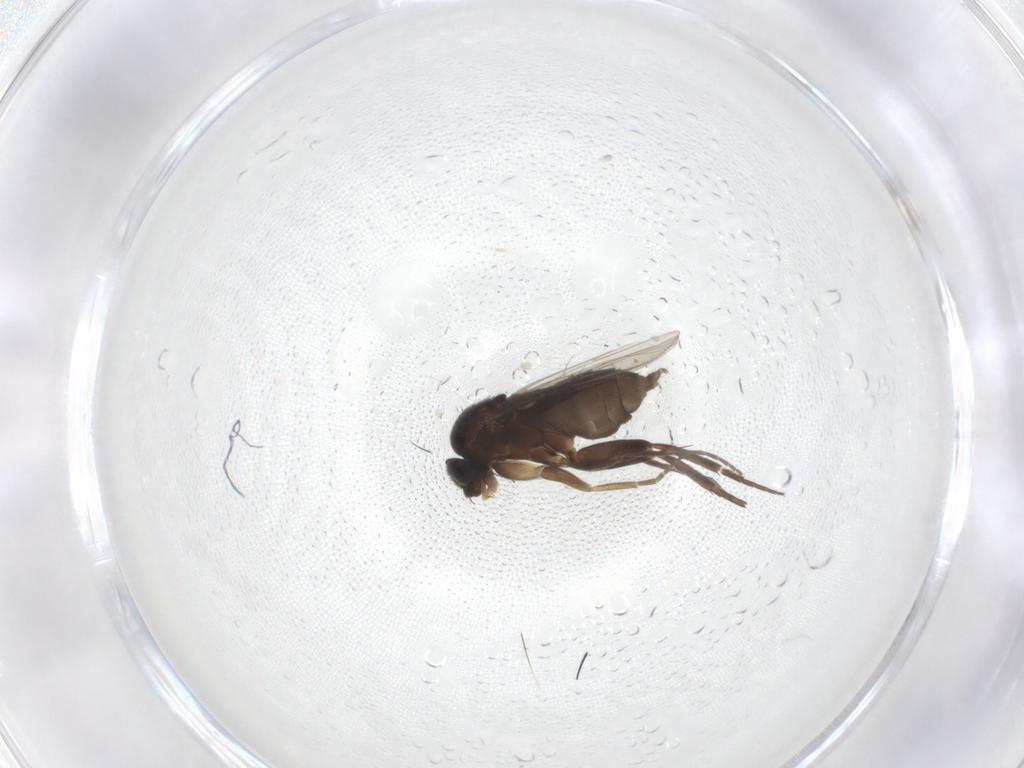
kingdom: Animalia
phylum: Arthropoda
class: Insecta
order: Diptera
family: Phoridae
